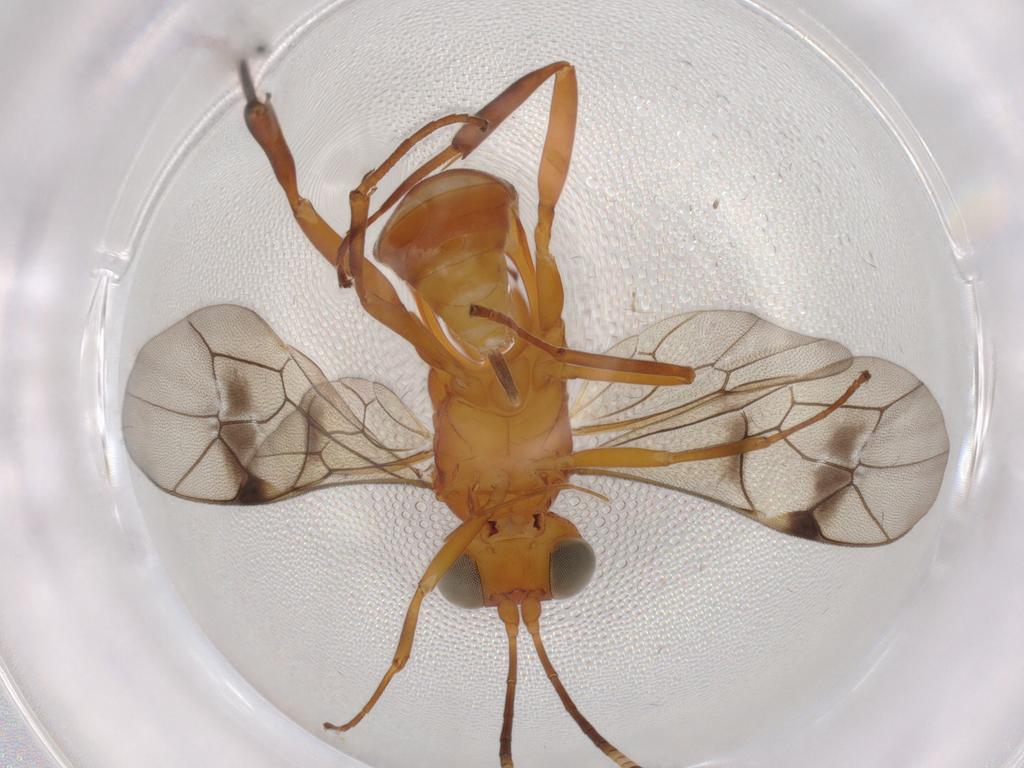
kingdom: Animalia
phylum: Arthropoda
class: Insecta
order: Hymenoptera
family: Ichneumonidae
